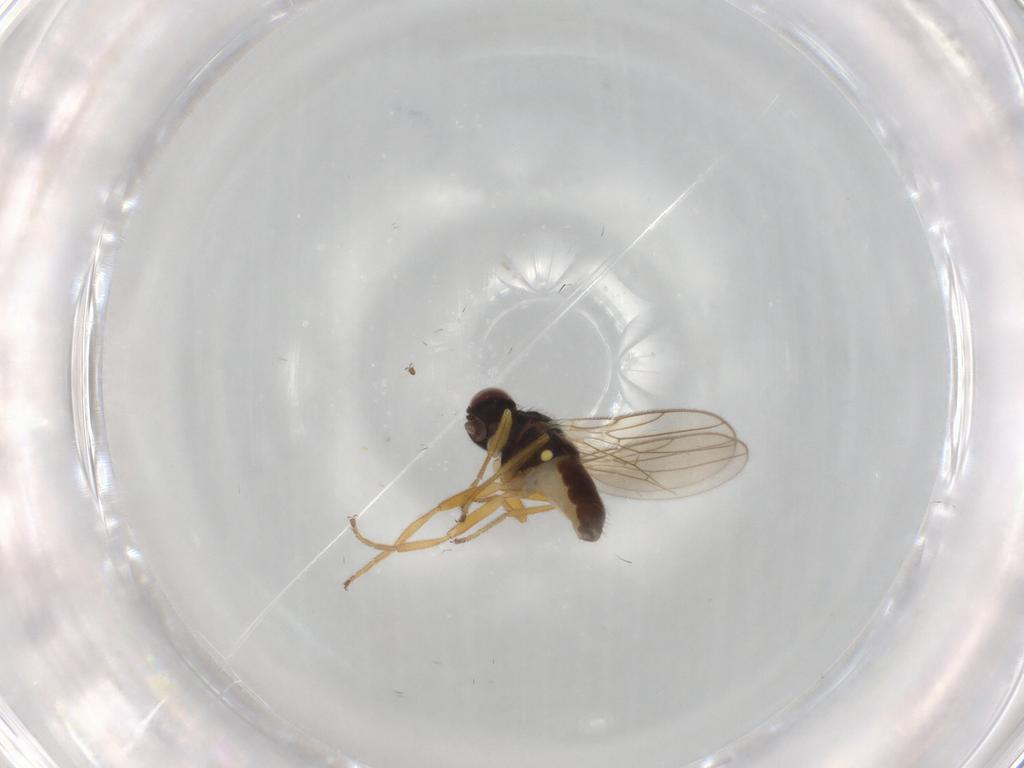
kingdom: Animalia
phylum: Arthropoda
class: Insecta
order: Diptera
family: Chloropidae
